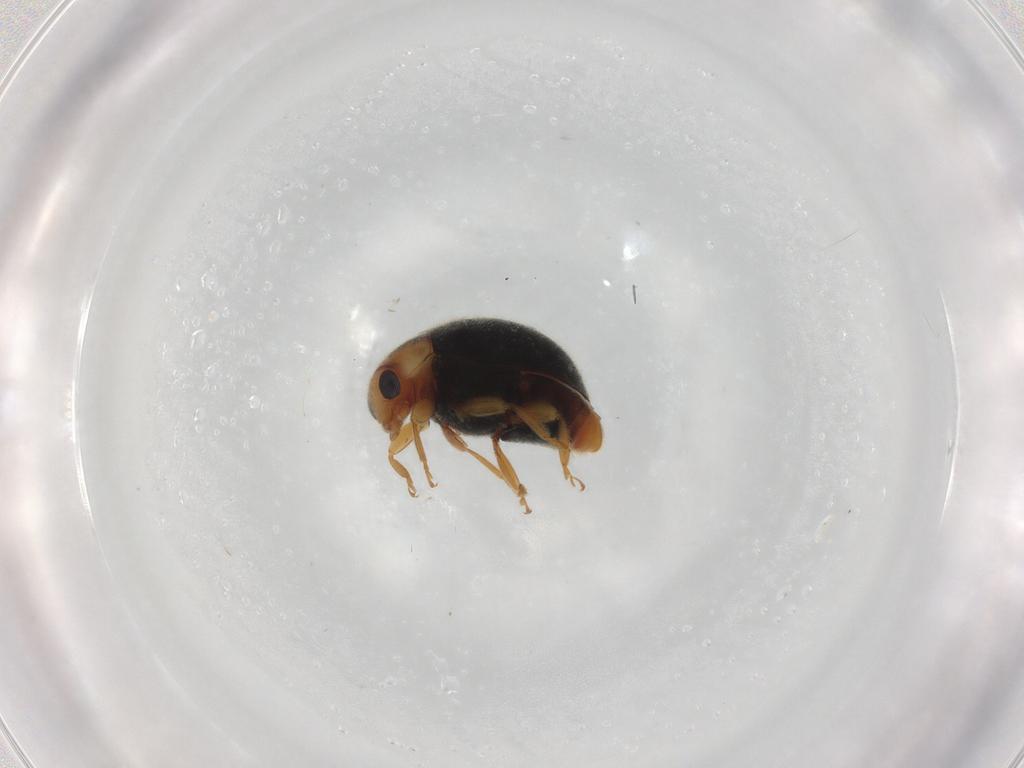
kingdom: Animalia
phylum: Arthropoda
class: Insecta
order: Coleoptera
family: Coccinellidae
